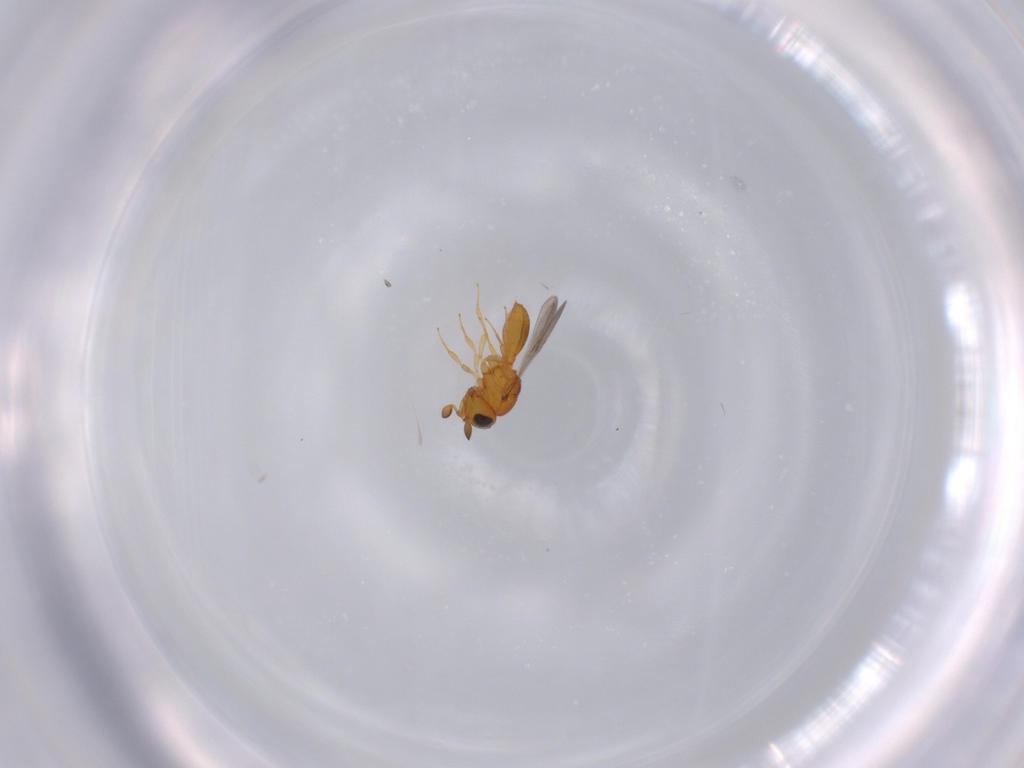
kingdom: Animalia
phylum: Arthropoda
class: Insecta
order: Hymenoptera
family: Scelionidae
